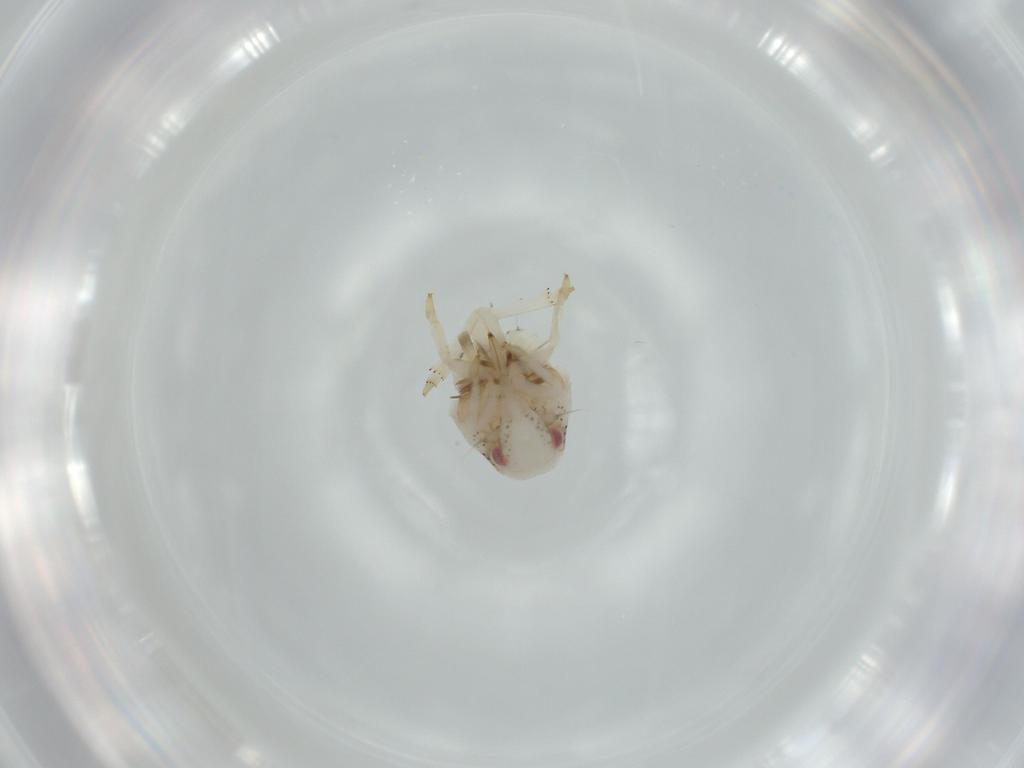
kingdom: Animalia
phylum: Arthropoda
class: Insecta
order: Hemiptera
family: Acanaloniidae
